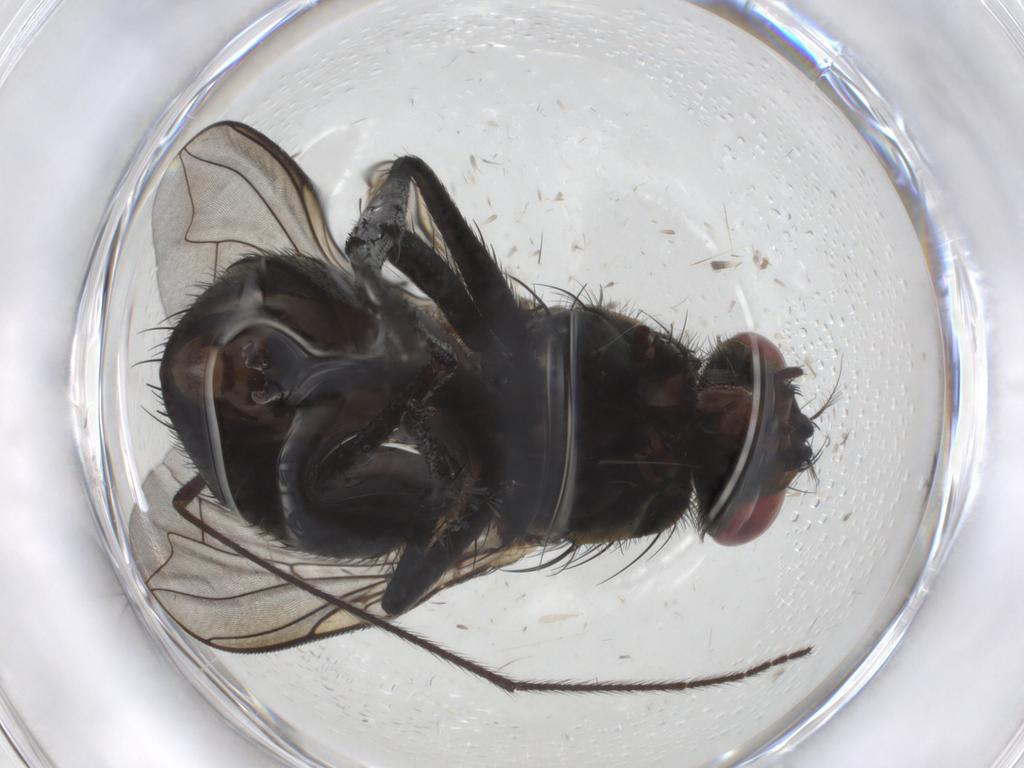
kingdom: Animalia
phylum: Arthropoda
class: Insecta
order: Diptera
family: Sarcophagidae
